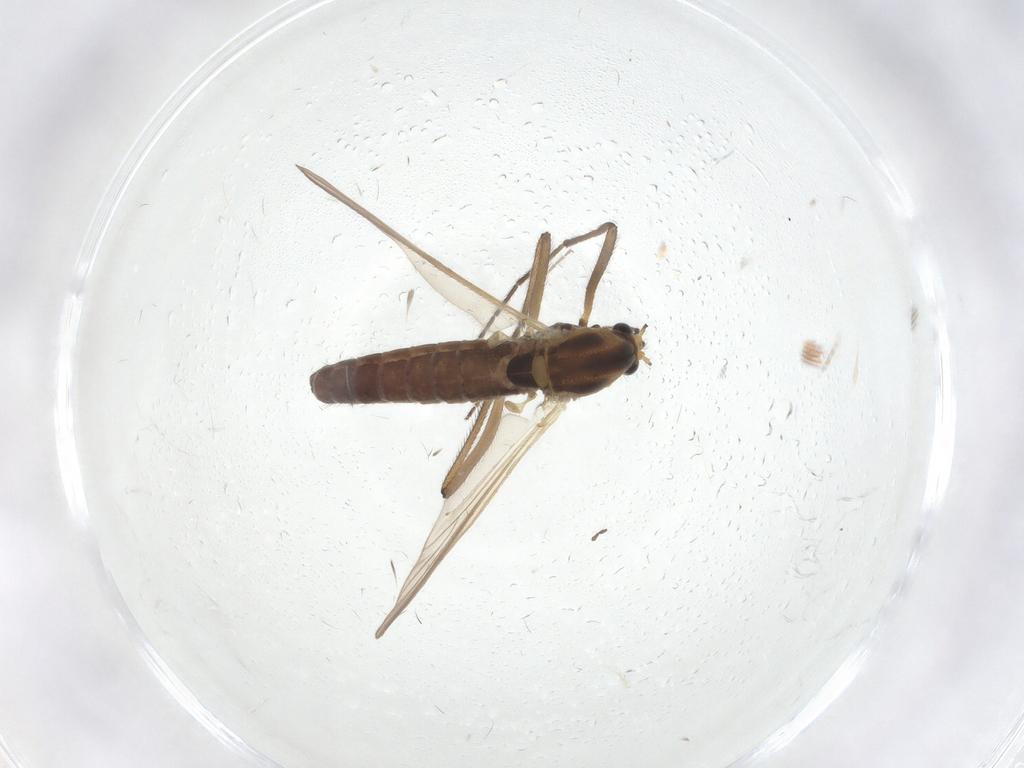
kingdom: Animalia
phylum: Arthropoda
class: Insecta
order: Diptera
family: Chironomidae
